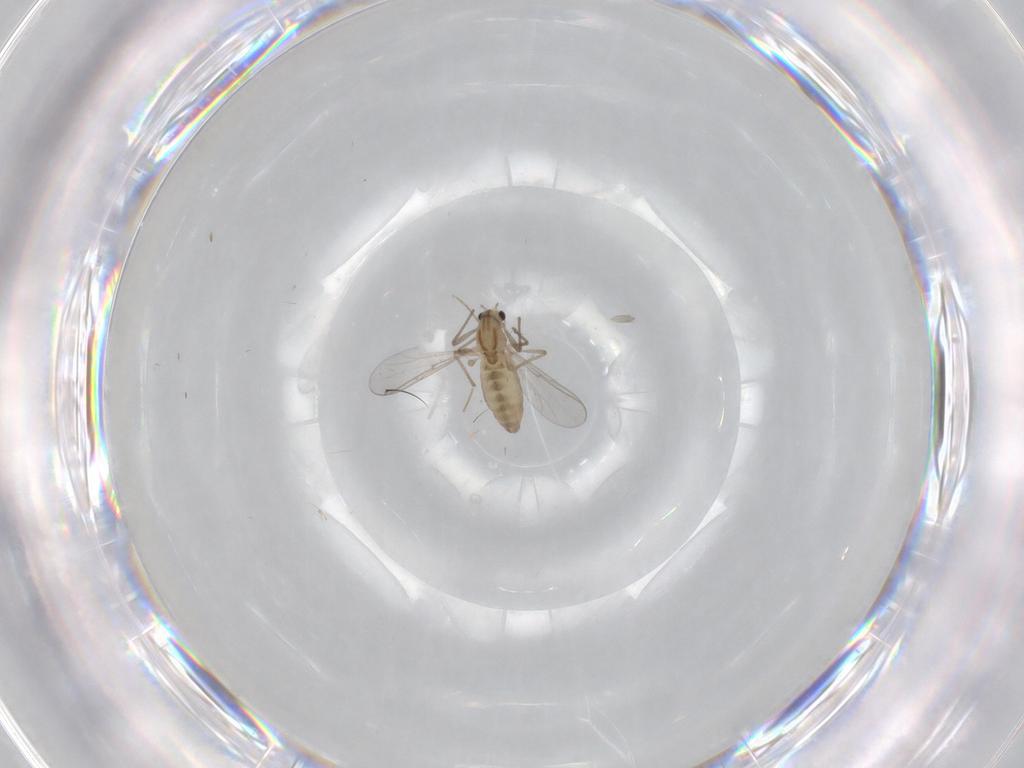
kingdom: Animalia
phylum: Arthropoda
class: Insecta
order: Diptera
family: Chironomidae
